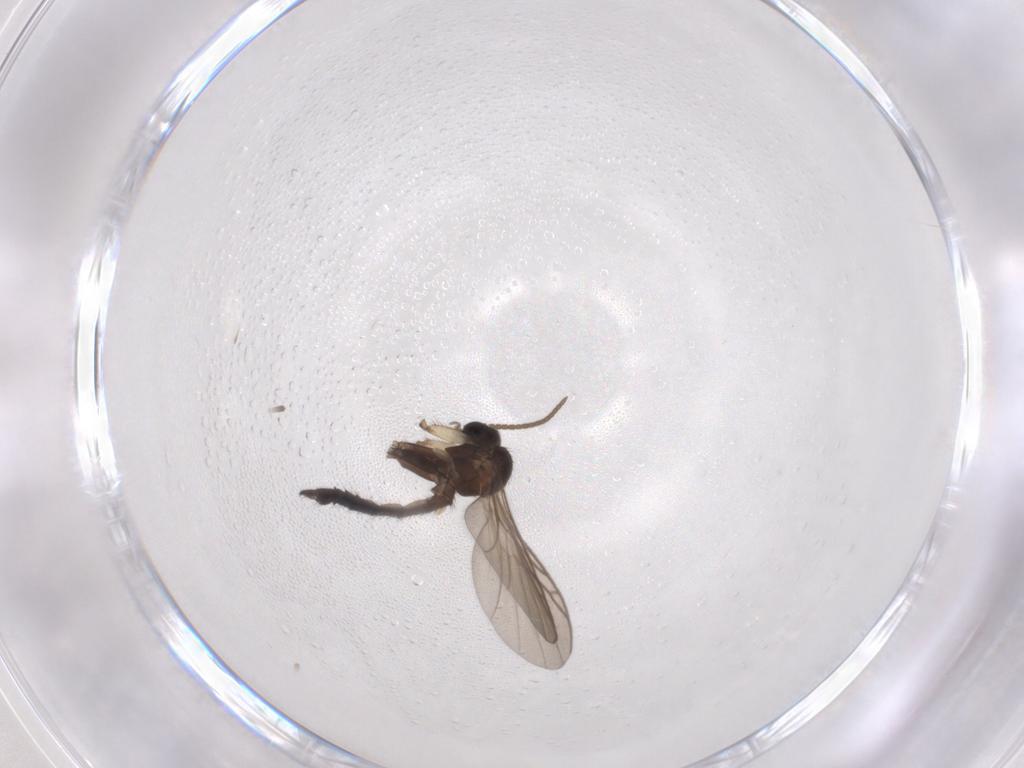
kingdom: Animalia
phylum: Arthropoda
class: Insecta
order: Diptera
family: Keroplatidae
